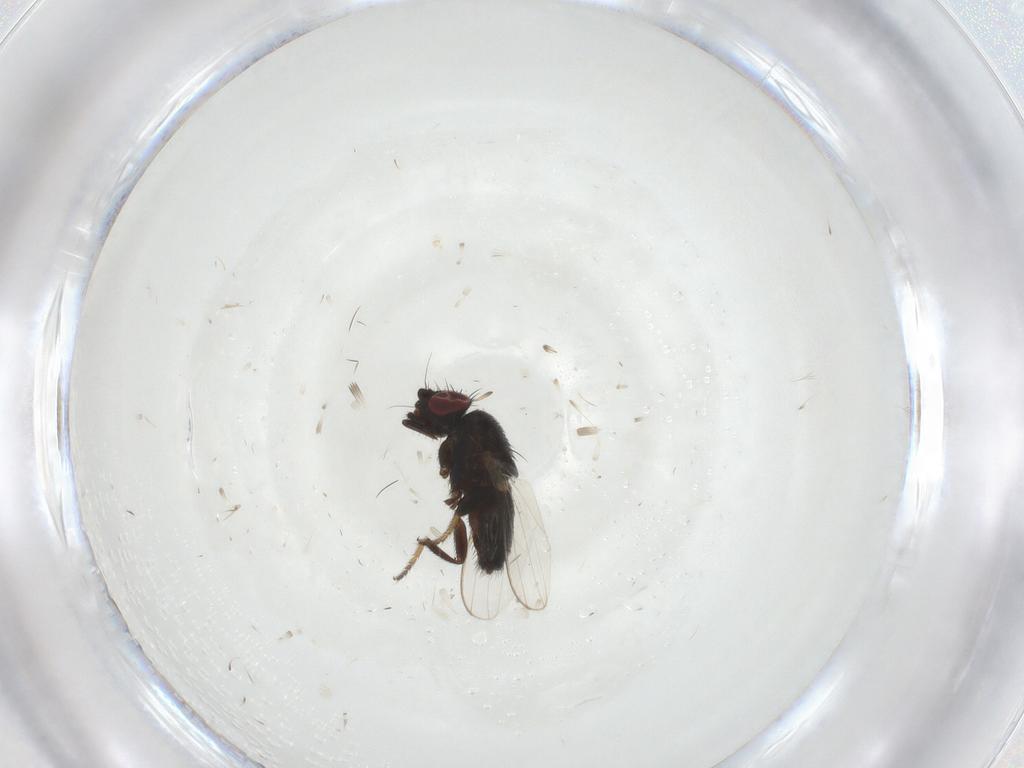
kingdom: Animalia
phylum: Arthropoda
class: Insecta
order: Diptera
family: Milichiidae
